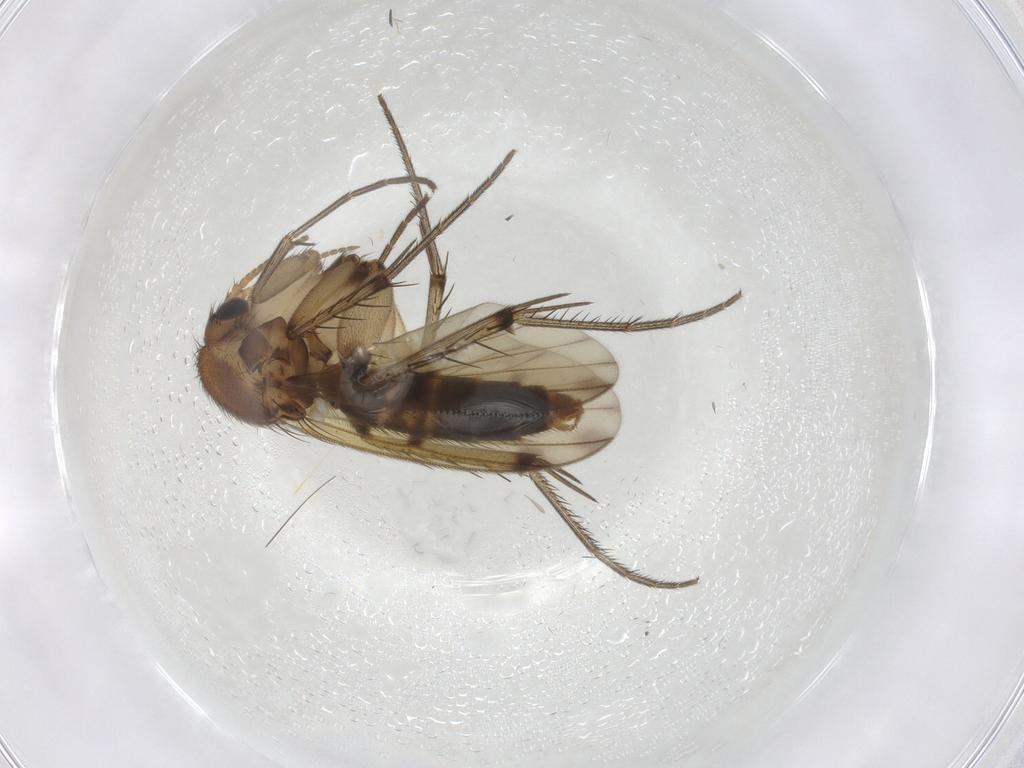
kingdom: Animalia
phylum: Arthropoda
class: Insecta
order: Diptera
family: Mycetophilidae
